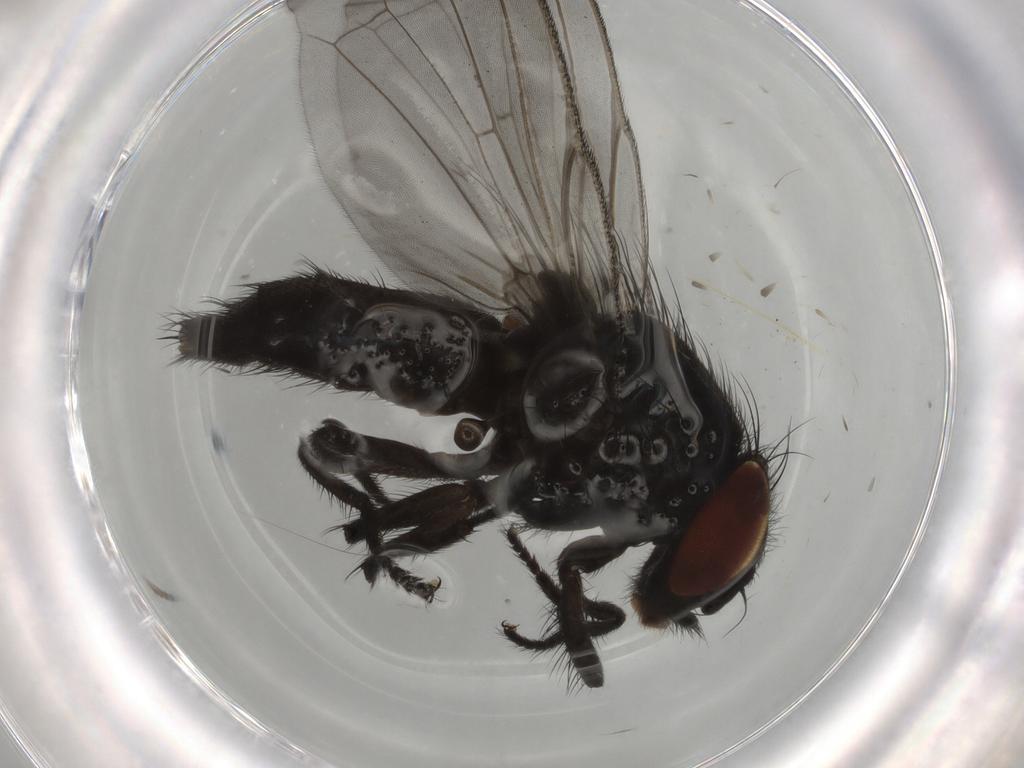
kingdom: Animalia
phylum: Arthropoda
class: Insecta
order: Diptera
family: Lonchaeidae
